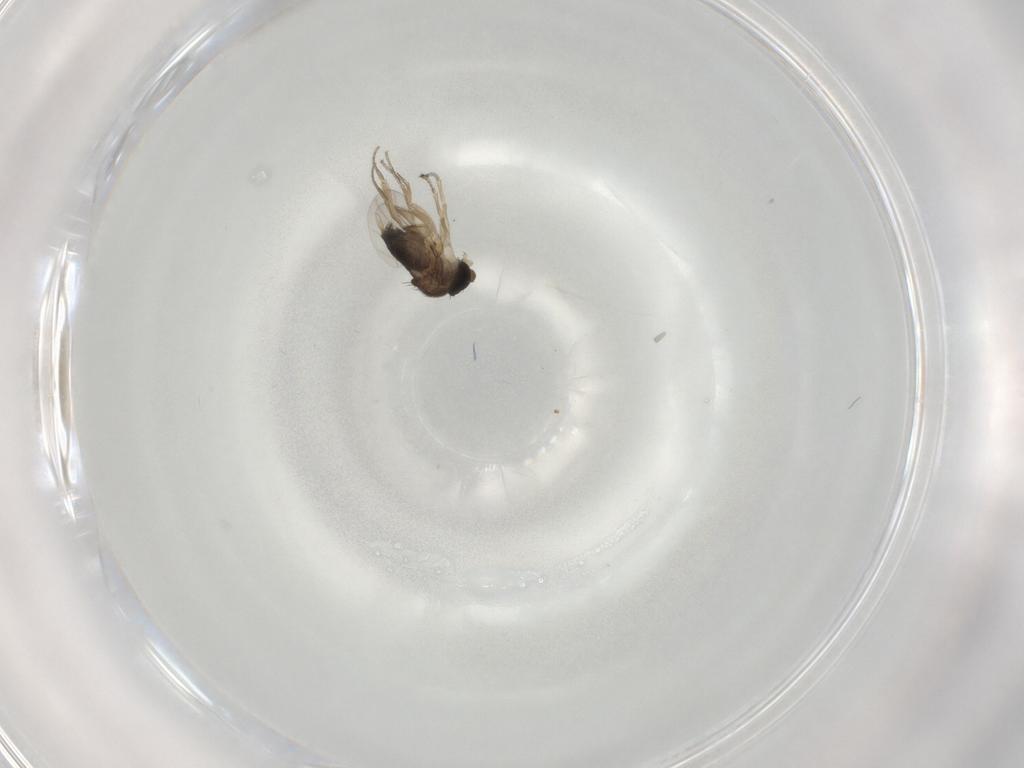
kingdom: Animalia
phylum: Arthropoda
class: Insecta
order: Diptera
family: Phoridae
